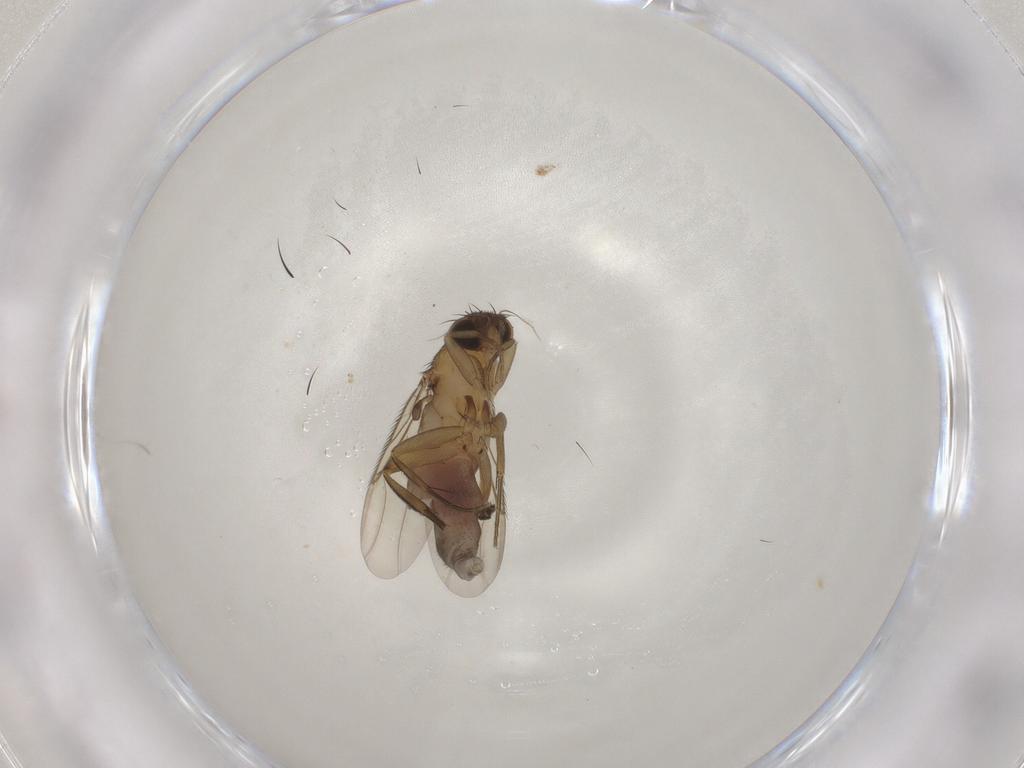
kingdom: Animalia
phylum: Arthropoda
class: Insecta
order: Diptera
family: Phoridae
